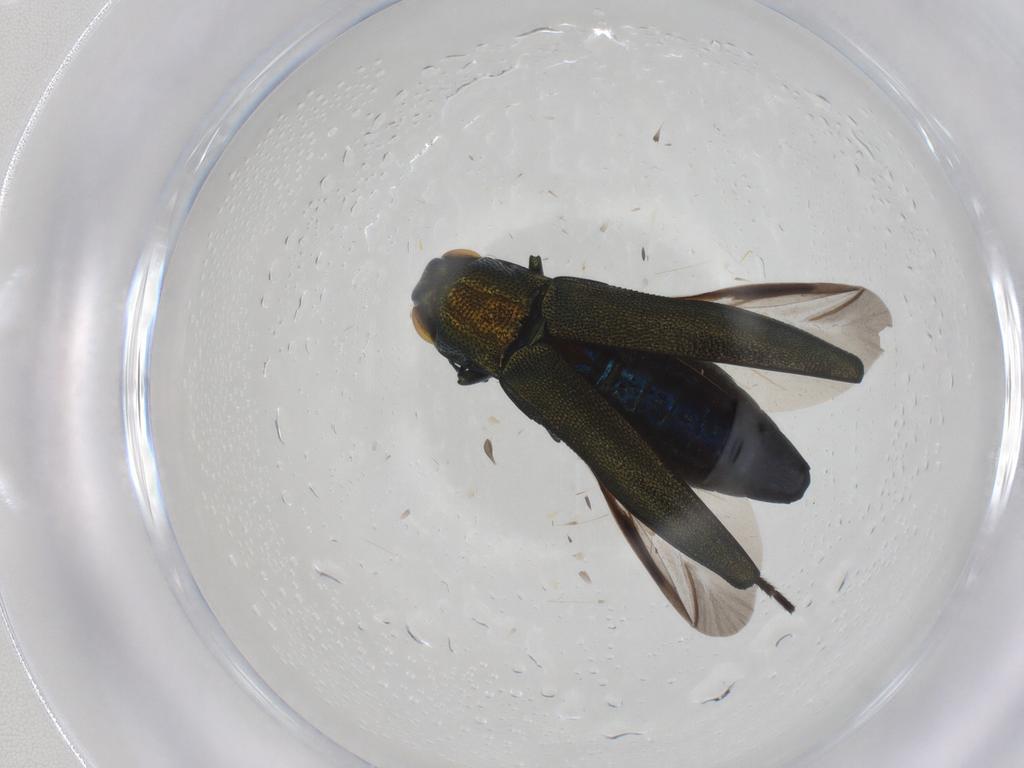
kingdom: Animalia
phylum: Arthropoda
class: Insecta
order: Coleoptera
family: Buprestidae
